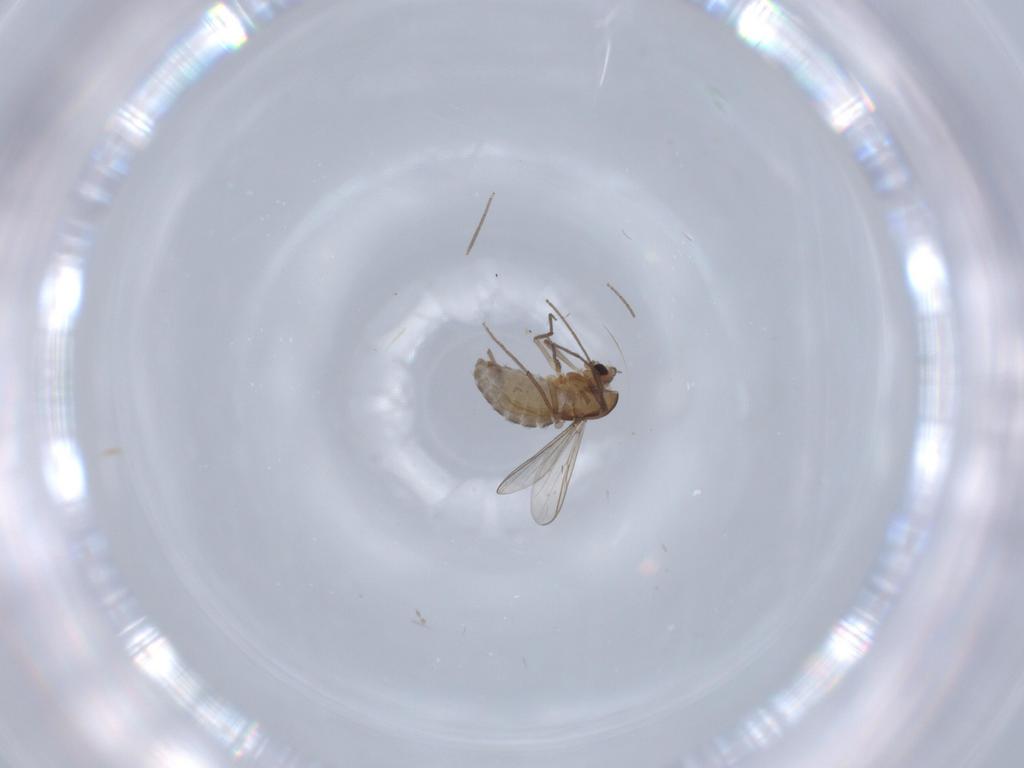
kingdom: Animalia
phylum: Arthropoda
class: Insecta
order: Diptera
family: Chironomidae
